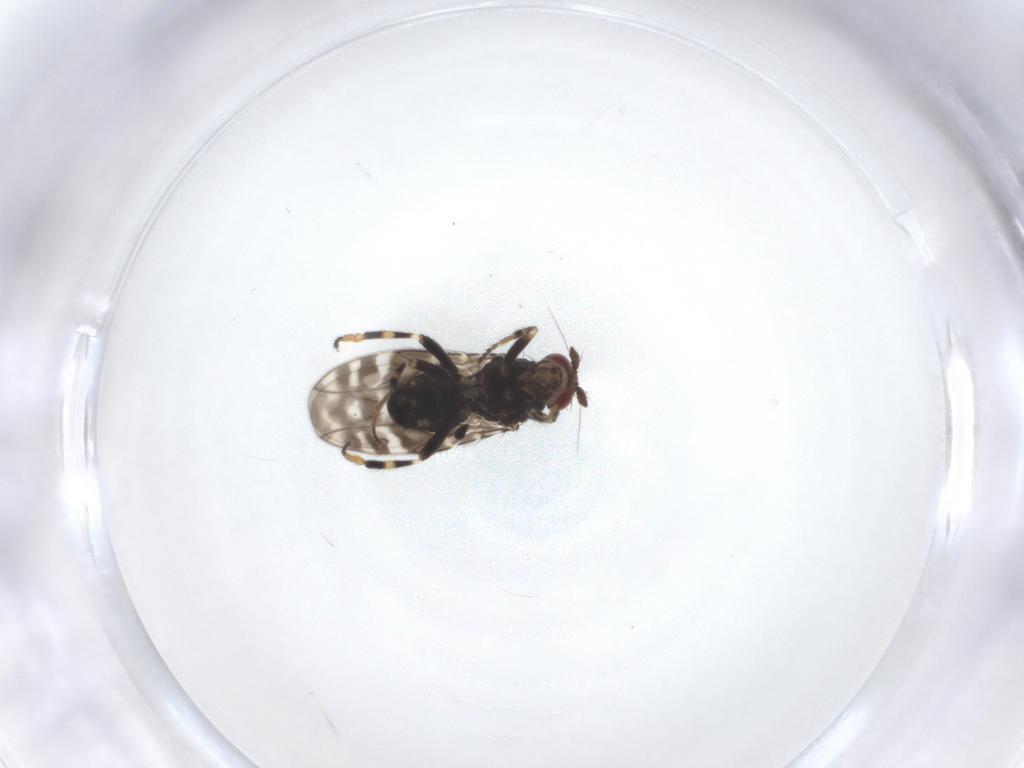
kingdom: Animalia
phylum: Arthropoda
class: Insecta
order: Diptera
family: Sphaeroceridae
